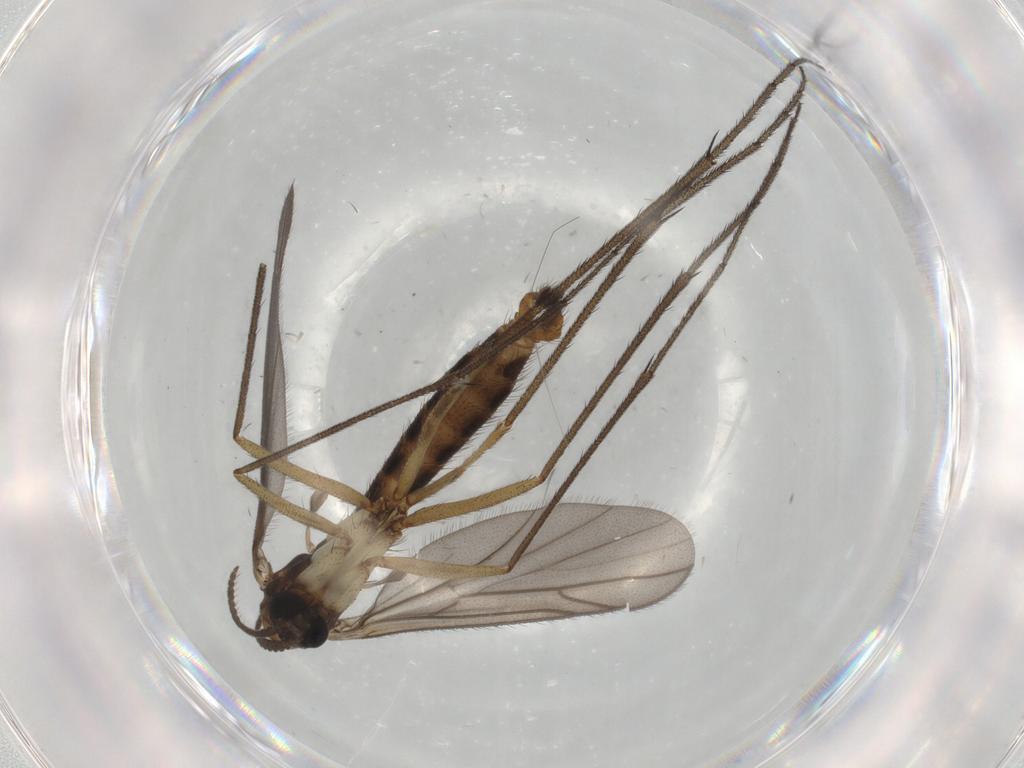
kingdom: Animalia
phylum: Arthropoda
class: Insecta
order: Diptera
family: Ditomyiidae
